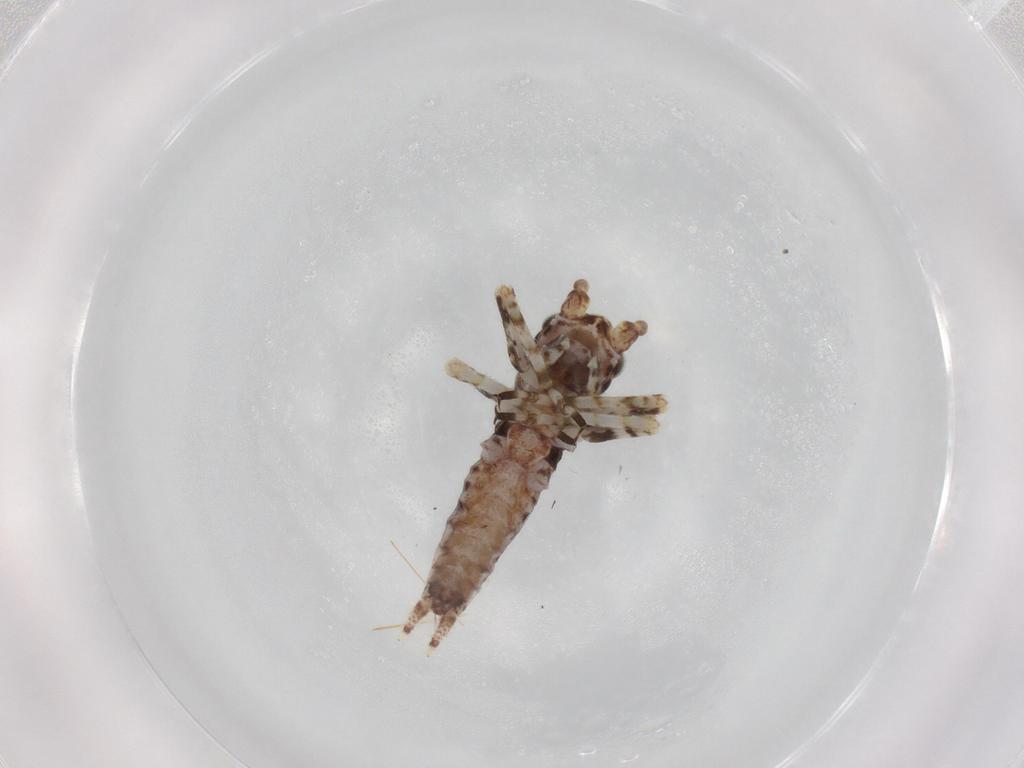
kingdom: Animalia
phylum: Arthropoda
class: Insecta
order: Orthoptera
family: Gryllidae
